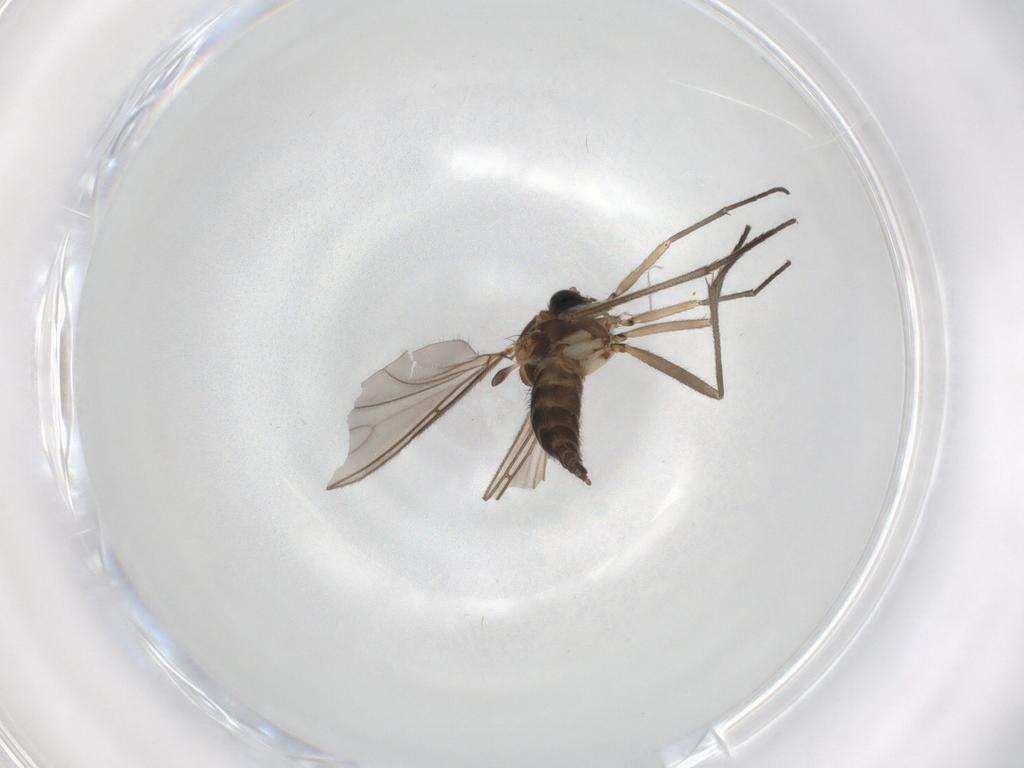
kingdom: Animalia
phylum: Arthropoda
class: Insecta
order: Diptera
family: Sciaridae
